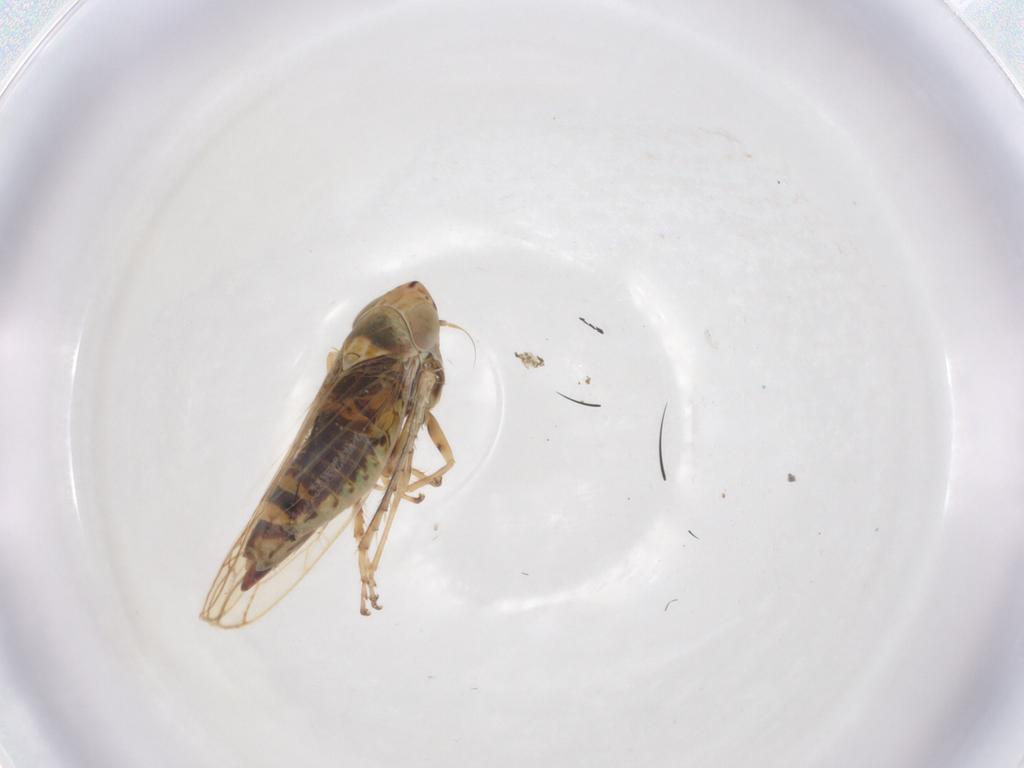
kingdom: Animalia
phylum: Arthropoda
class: Insecta
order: Hemiptera
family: Cicadellidae
